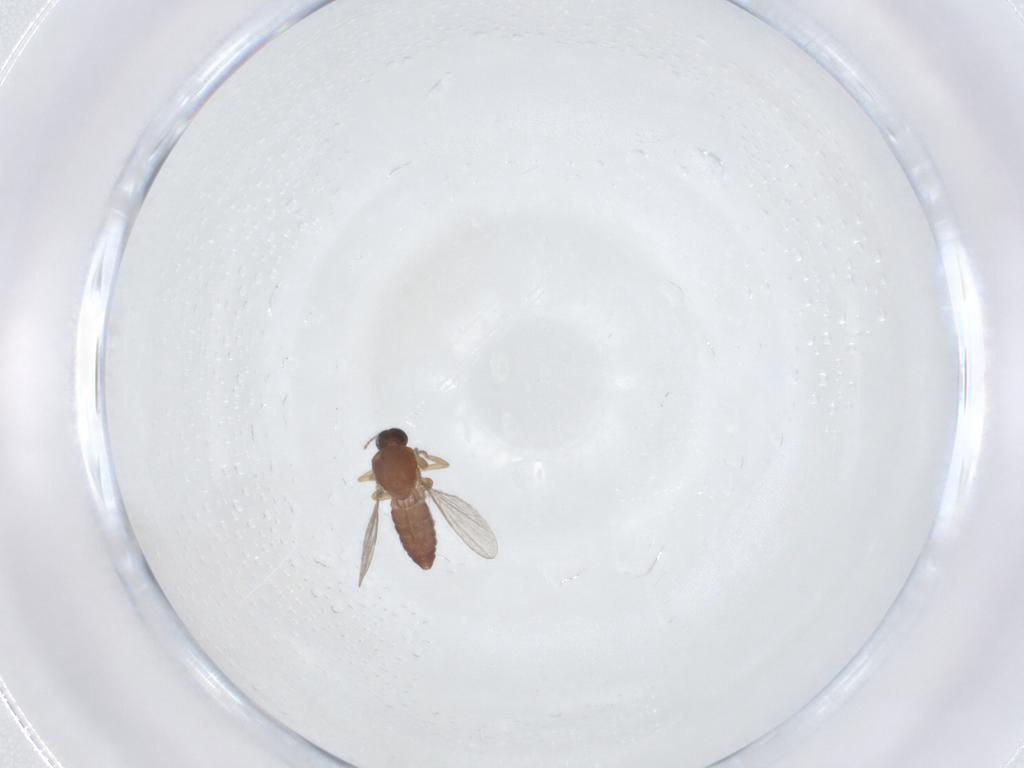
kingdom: Animalia
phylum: Arthropoda
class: Insecta
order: Diptera
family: Ceratopogonidae
